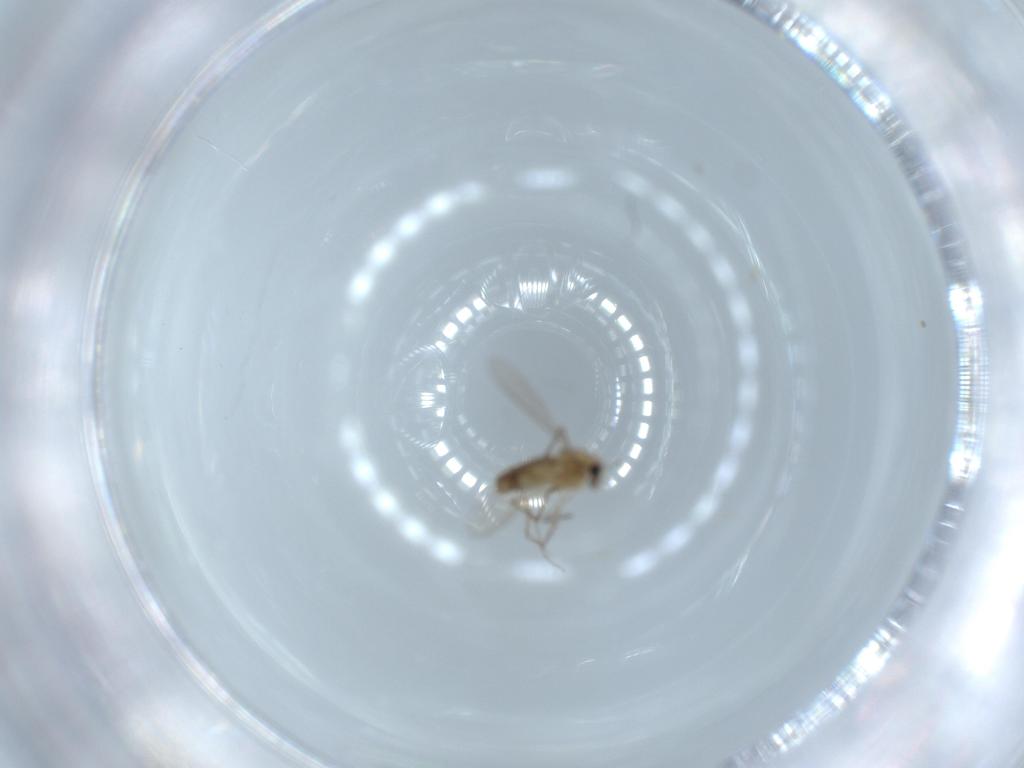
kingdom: Animalia
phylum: Arthropoda
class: Insecta
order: Diptera
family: Chironomidae
